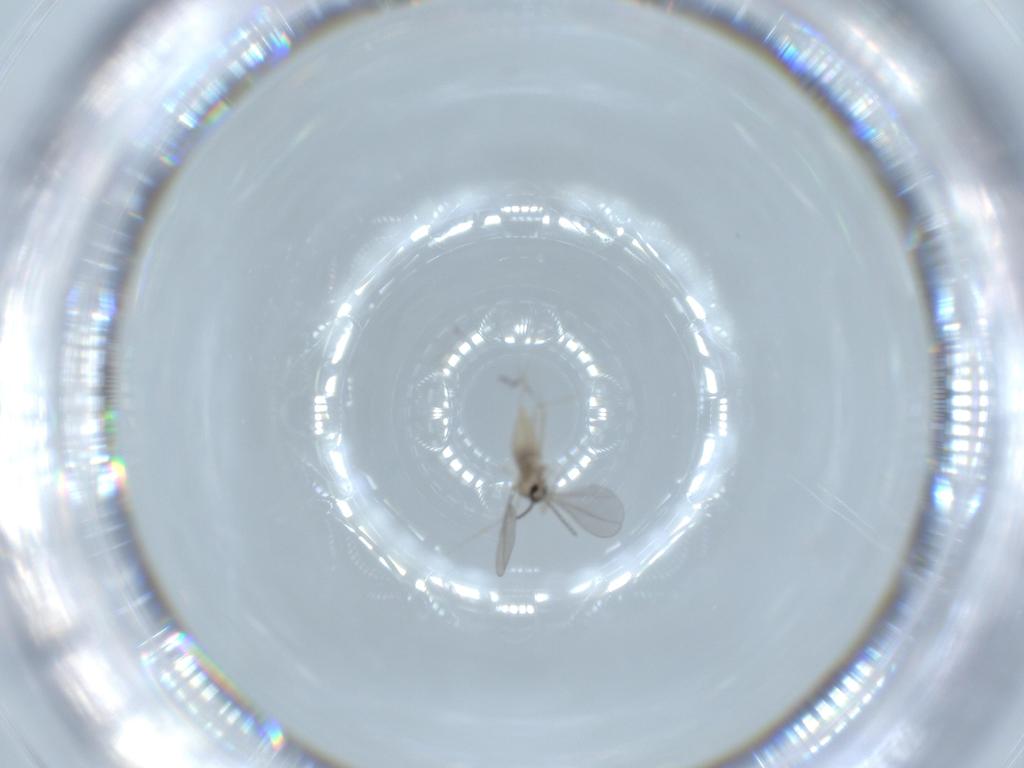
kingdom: Animalia
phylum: Arthropoda
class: Insecta
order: Diptera
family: Cecidomyiidae
